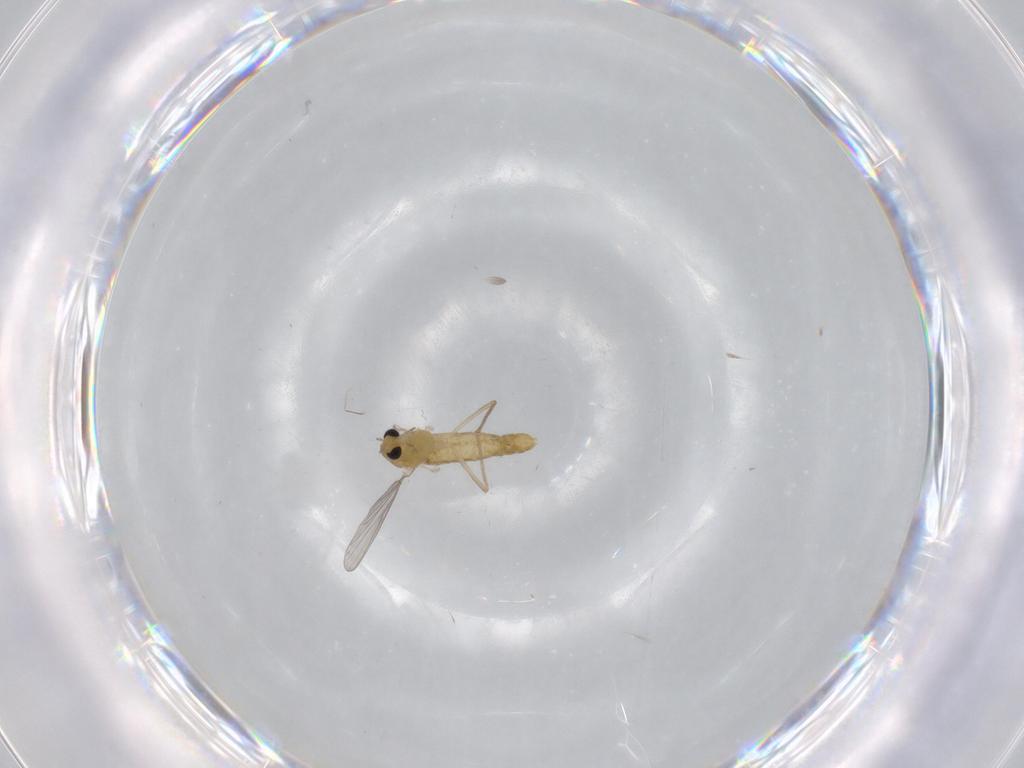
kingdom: Animalia
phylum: Arthropoda
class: Insecta
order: Diptera
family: Chironomidae
